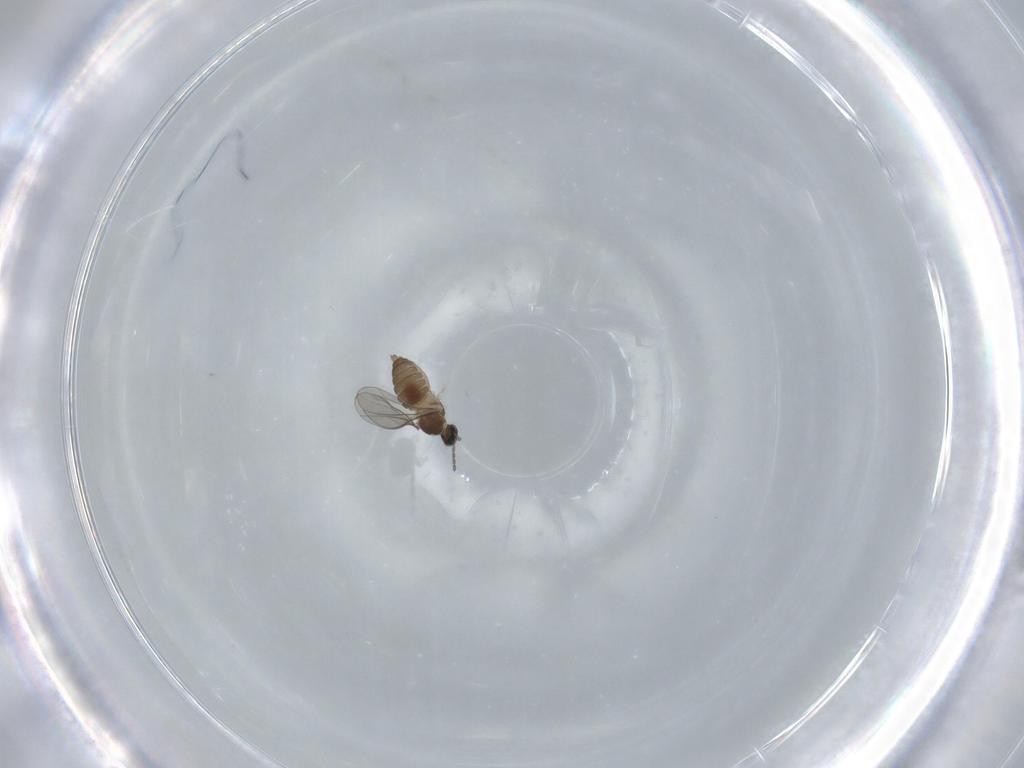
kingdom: Animalia
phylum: Arthropoda
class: Insecta
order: Diptera
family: Cecidomyiidae
